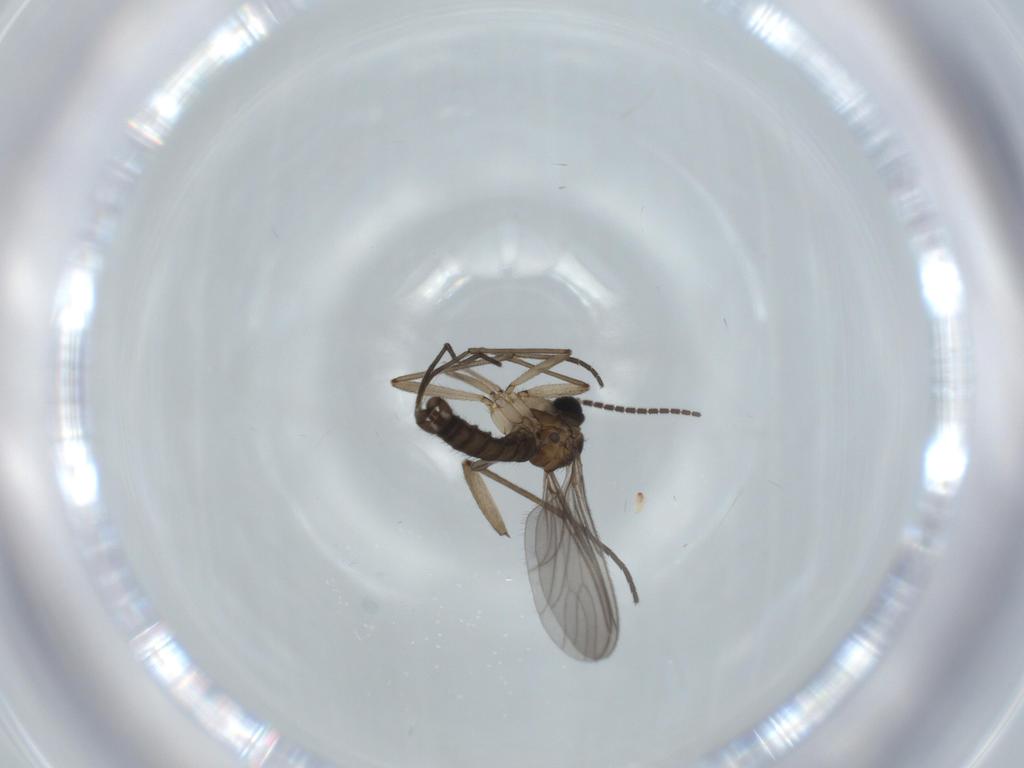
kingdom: Animalia
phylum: Arthropoda
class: Insecta
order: Diptera
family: Sciaridae
